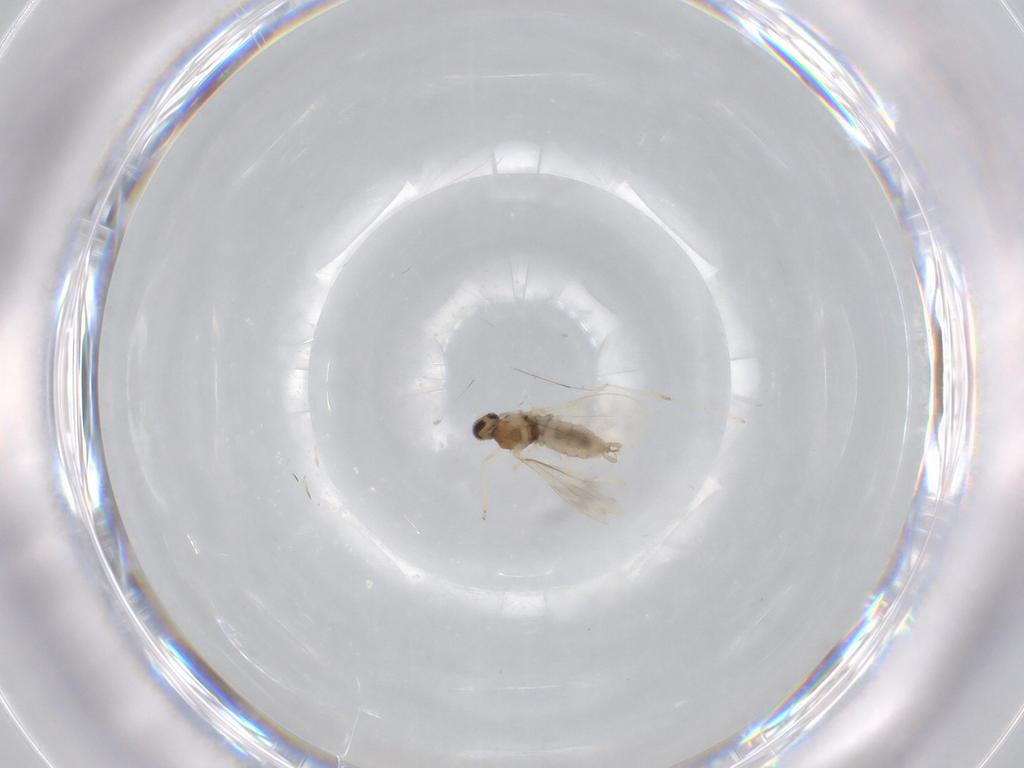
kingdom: Animalia
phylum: Arthropoda
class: Insecta
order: Diptera
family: Cecidomyiidae
